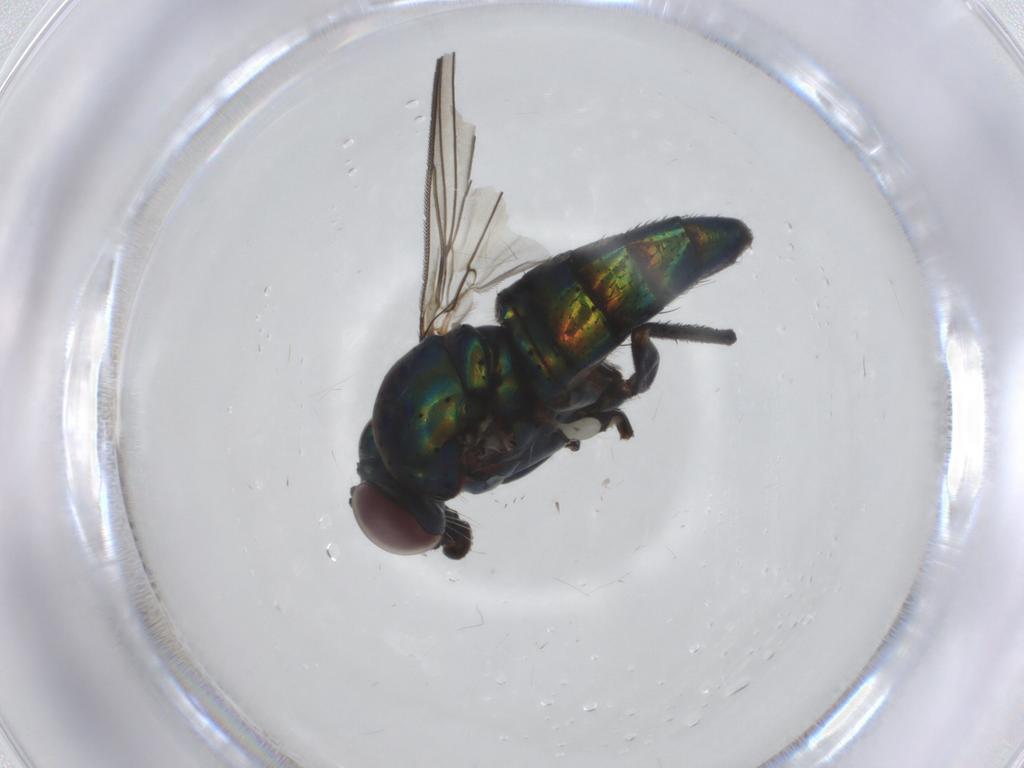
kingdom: Animalia
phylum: Arthropoda
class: Insecta
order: Diptera
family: Dolichopodidae
